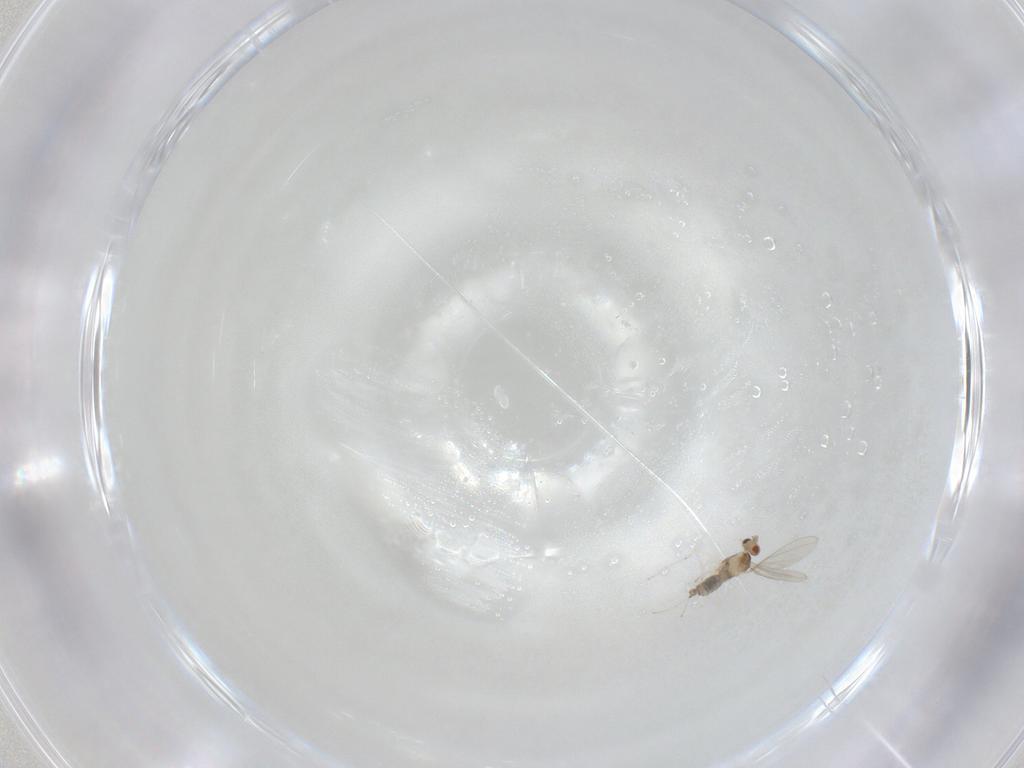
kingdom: Animalia
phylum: Arthropoda
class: Insecta
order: Diptera
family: Cecidomyiidae
